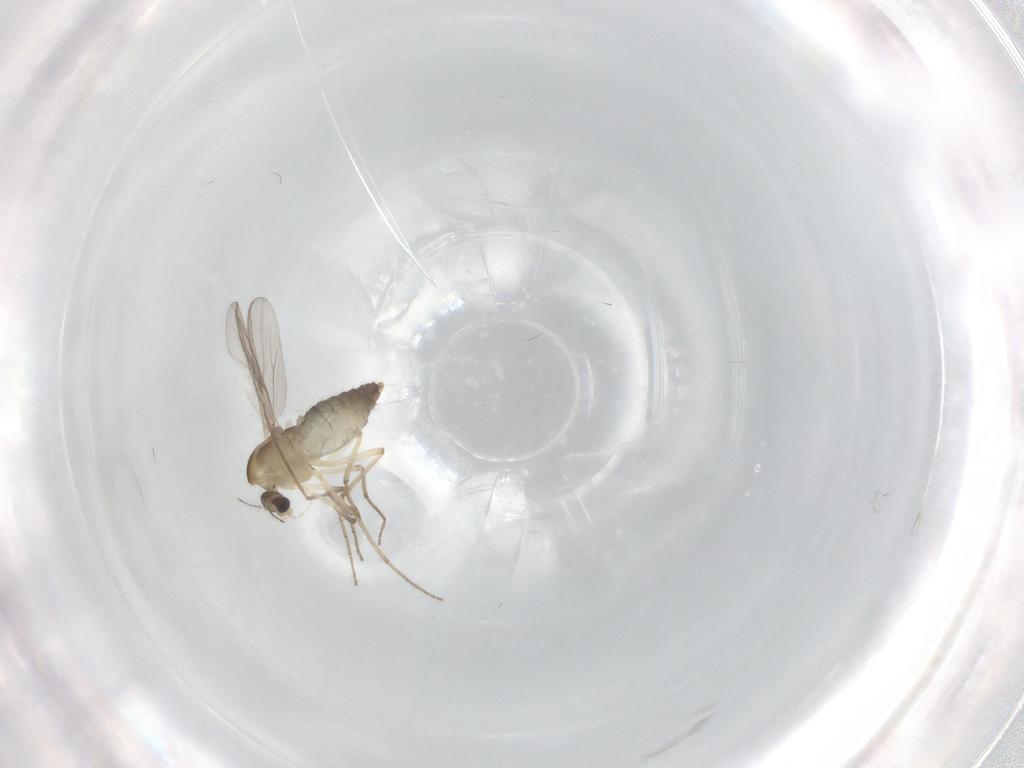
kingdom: Animalia
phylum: Arthropoda
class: Insecta
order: Diptera
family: Chironomidae
